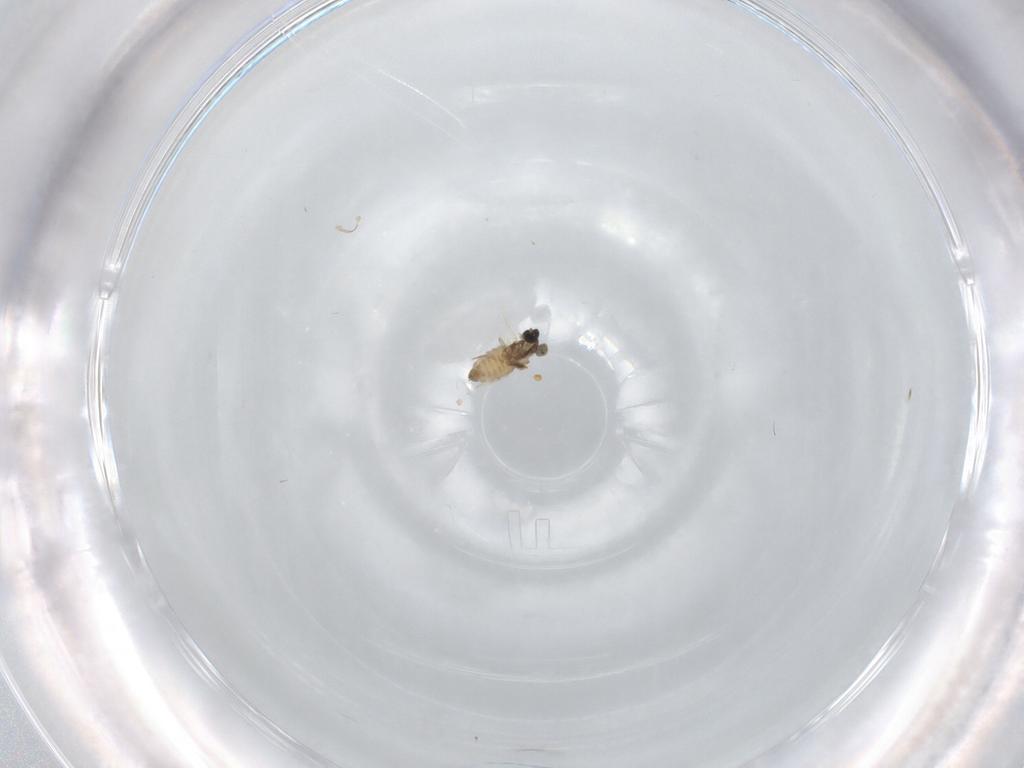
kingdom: Animalia
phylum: Arthropoda
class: Insecta
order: Diptera
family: Cecidomyiidae
